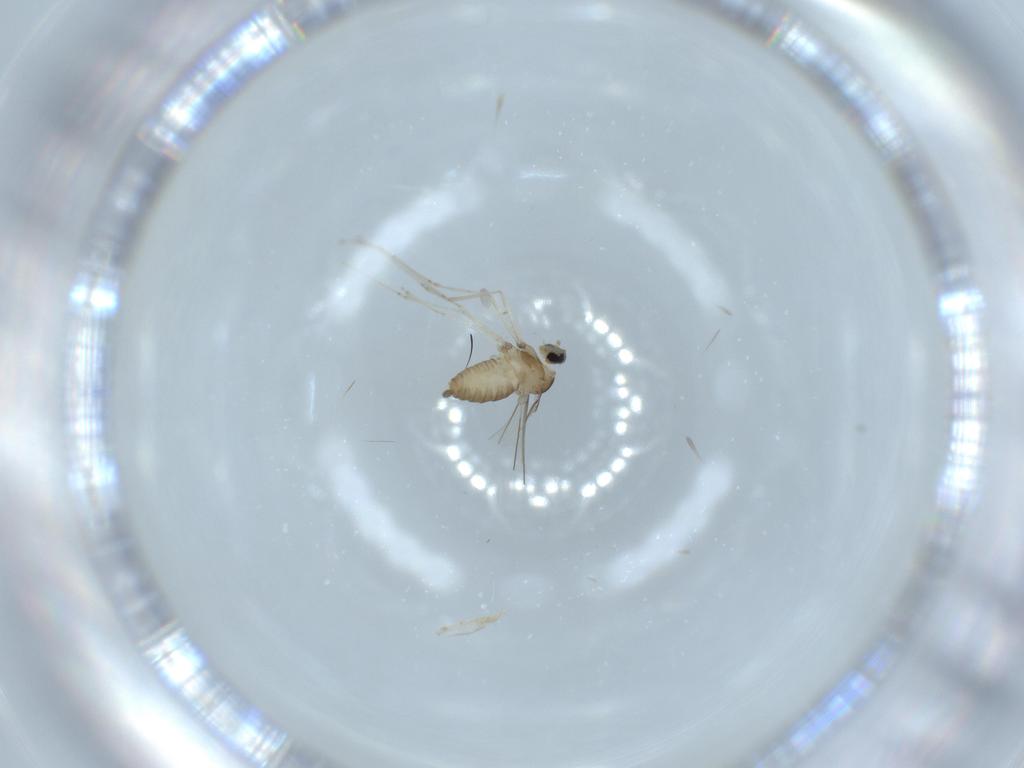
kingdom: Animalia
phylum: Arthropoda
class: Insecta
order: Diptera
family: Cecidomyiidae
